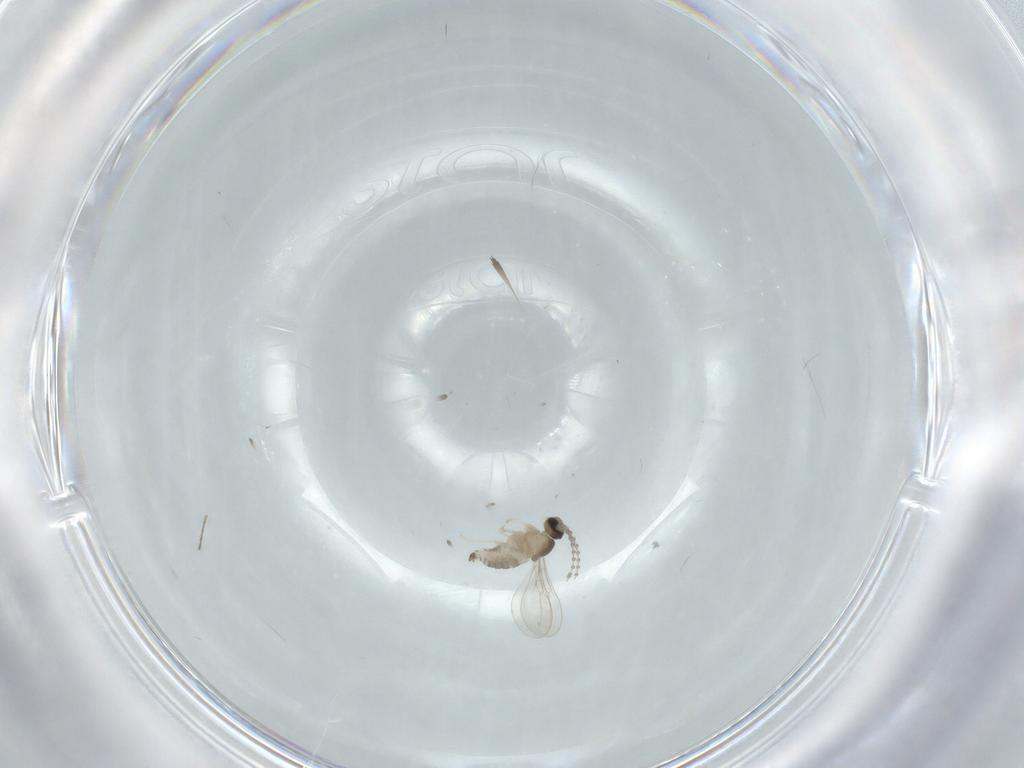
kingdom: Animalia
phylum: Arthropoda
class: Insecta
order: Diptera
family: Cecidomyiidae
